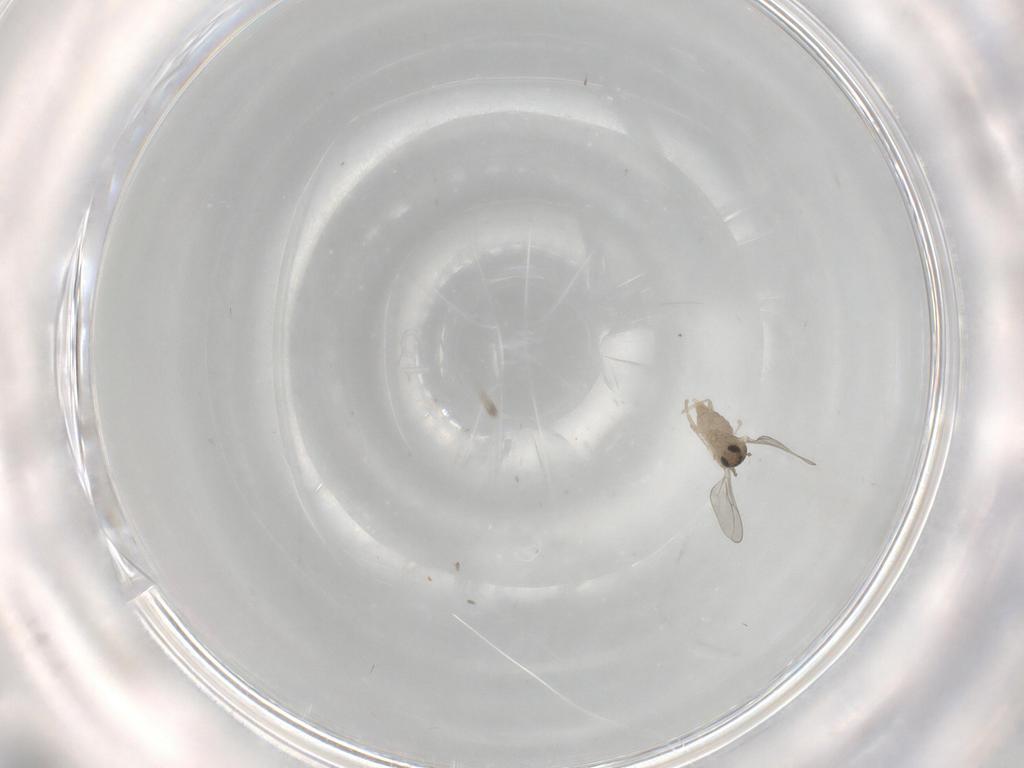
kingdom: Animalia
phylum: Arthropoda
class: Insecta
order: Diptera
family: Cecidomyiidae
